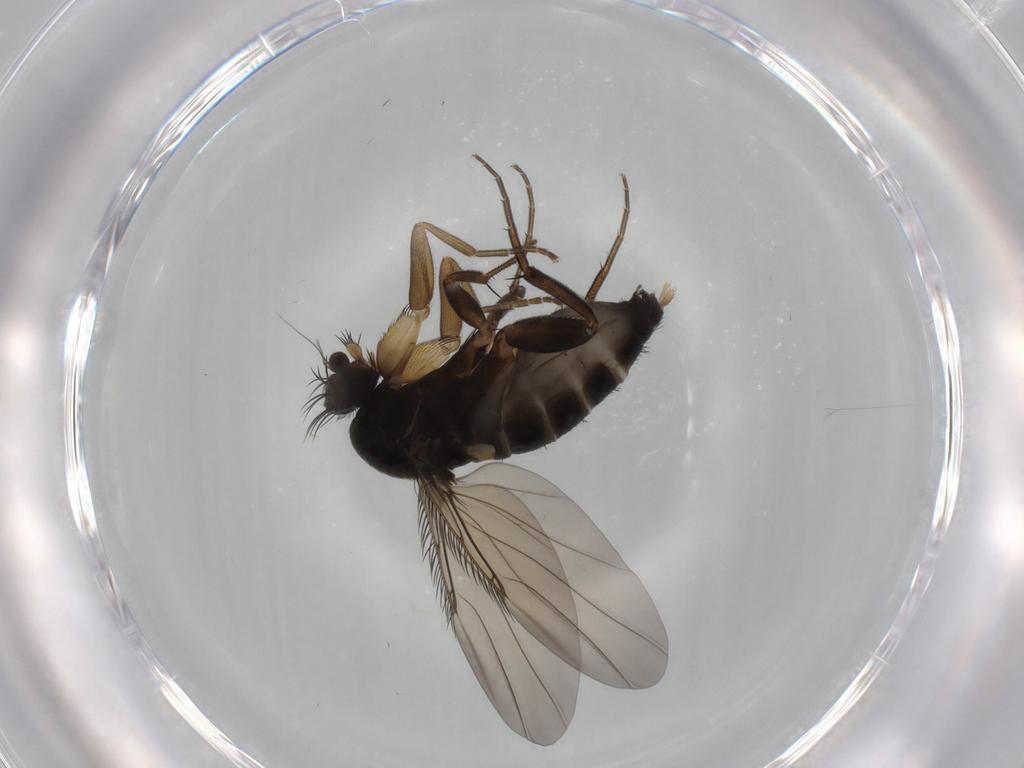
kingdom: Animalia
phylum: Arthropoda
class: Insecta
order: Diptera
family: Phoridae
